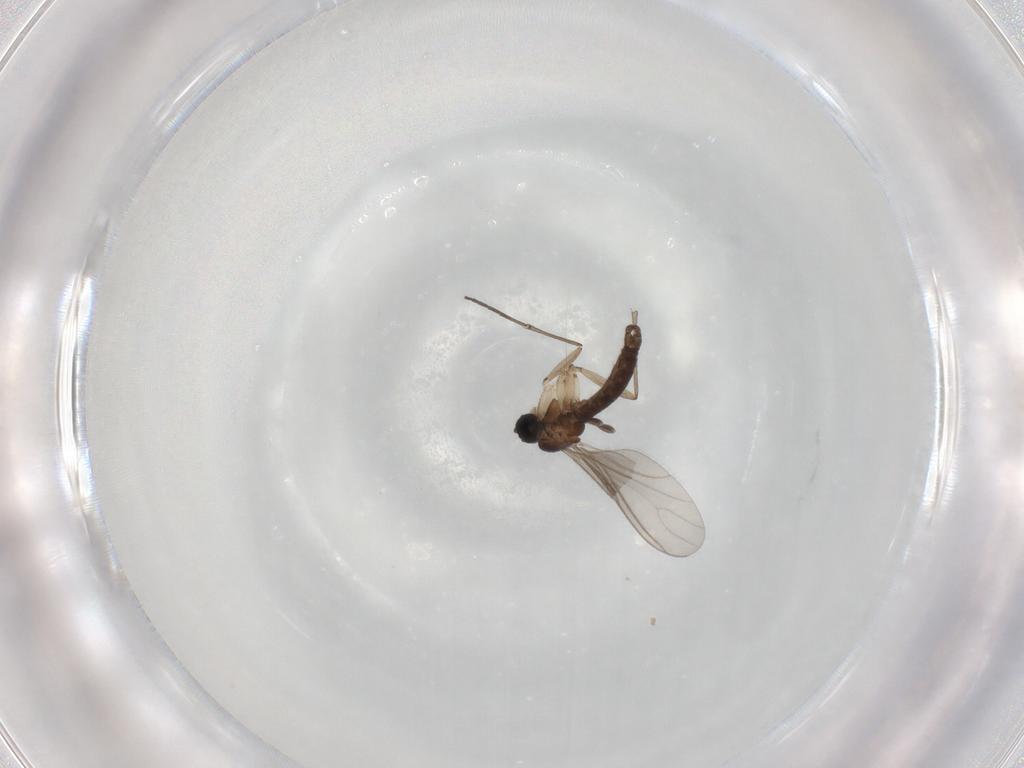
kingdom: Animalia
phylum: Arthropoda
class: Insecta
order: Diptera
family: Sciaridae
